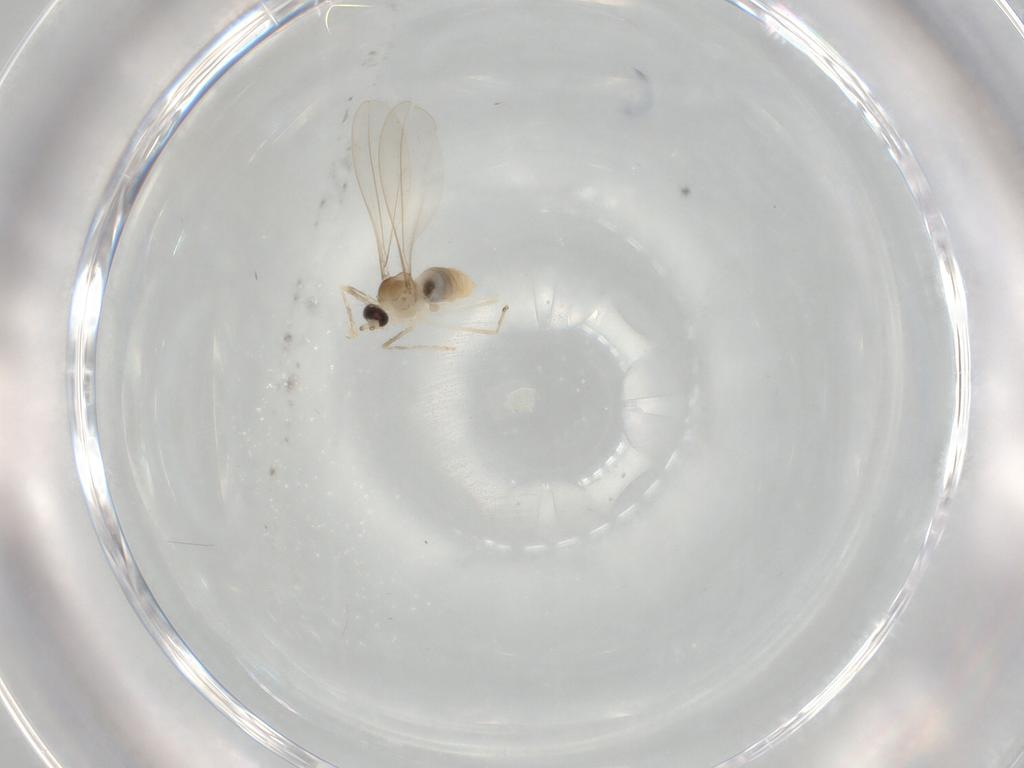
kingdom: Animalia
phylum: Arthropoda
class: Insecta
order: Diptera
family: Cecidomyiidae
